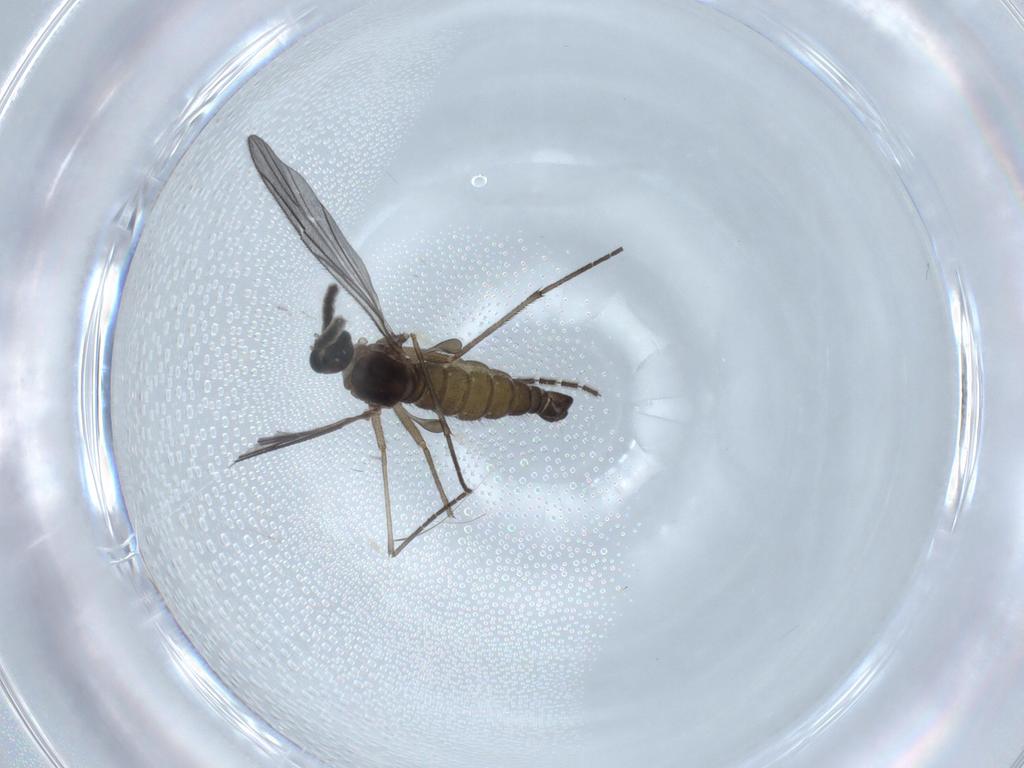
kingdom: Animalia
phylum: Arthropoda
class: Insecta
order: Diptera
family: Sciaridae
